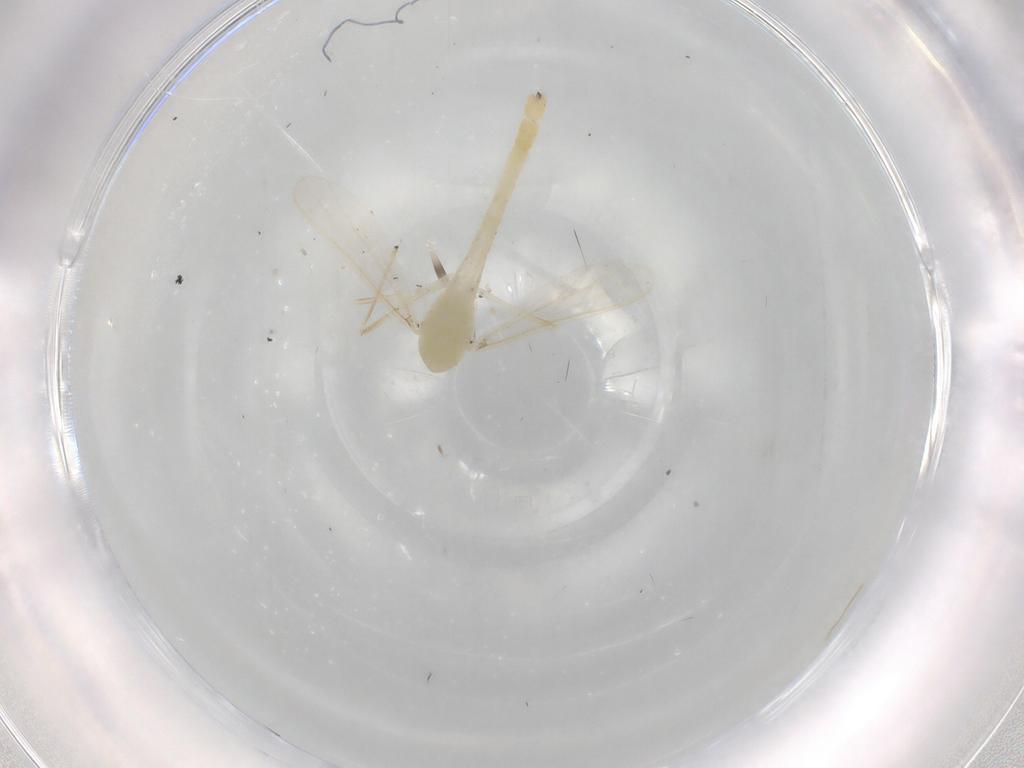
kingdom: Animalia
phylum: Arthropoda
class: Insecta
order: Diptera
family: Chironomidae
